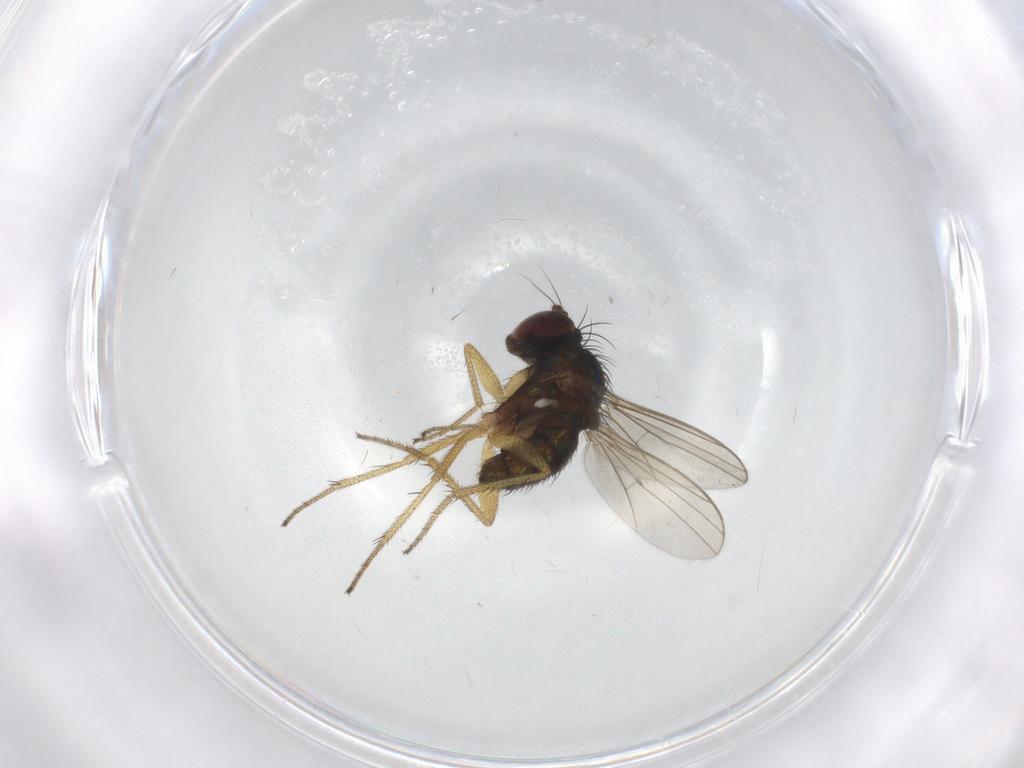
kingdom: Animalia
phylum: Arthropoda
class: Insecta
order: Diptera
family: Dolichopodidae
